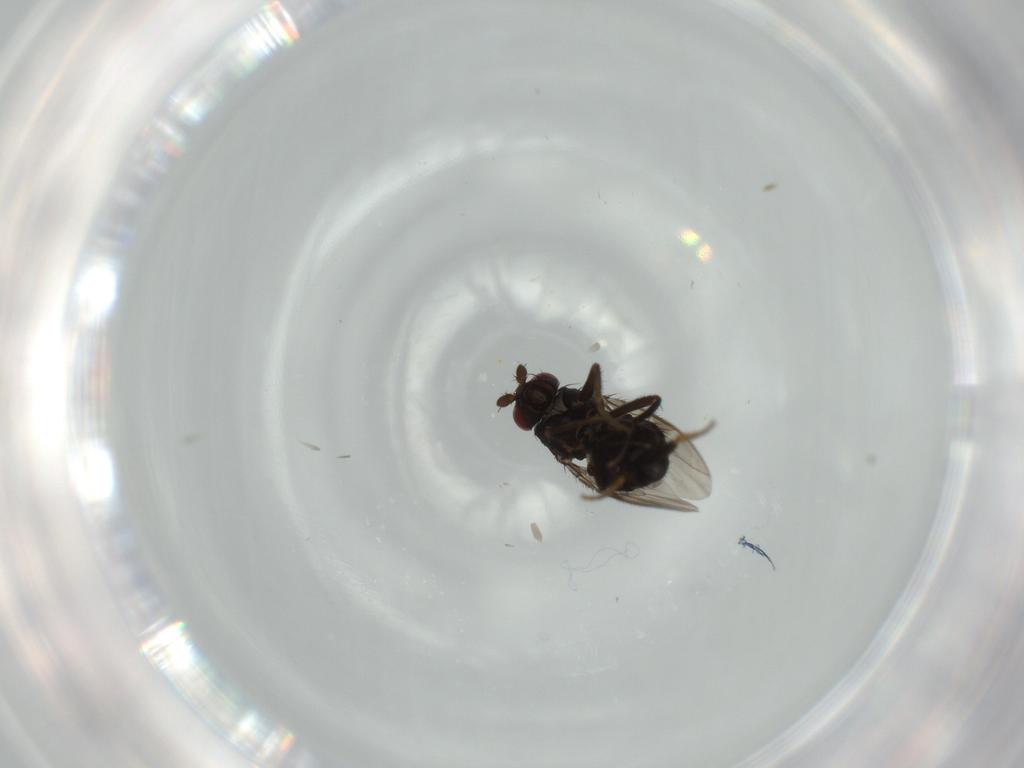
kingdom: Animalia
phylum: Arthropoda
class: Insecta
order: Diptera
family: Sphaeroceridae
